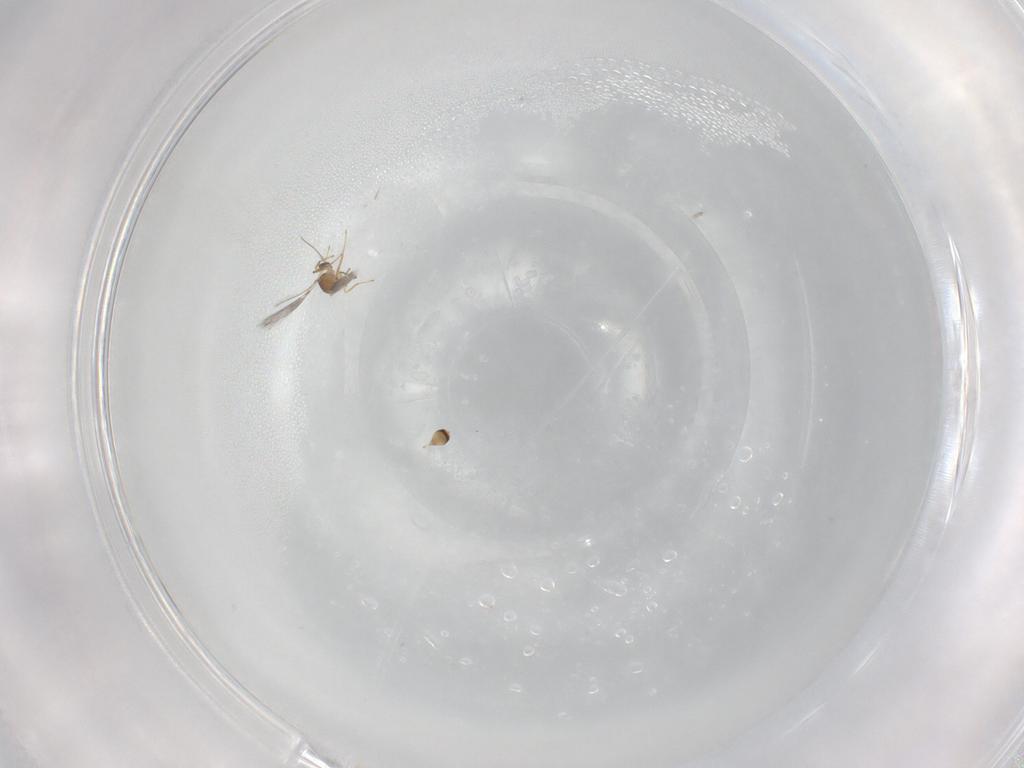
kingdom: Animalia
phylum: Arthropoda
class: Insecta
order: Hymenoptera
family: Mymaridae
